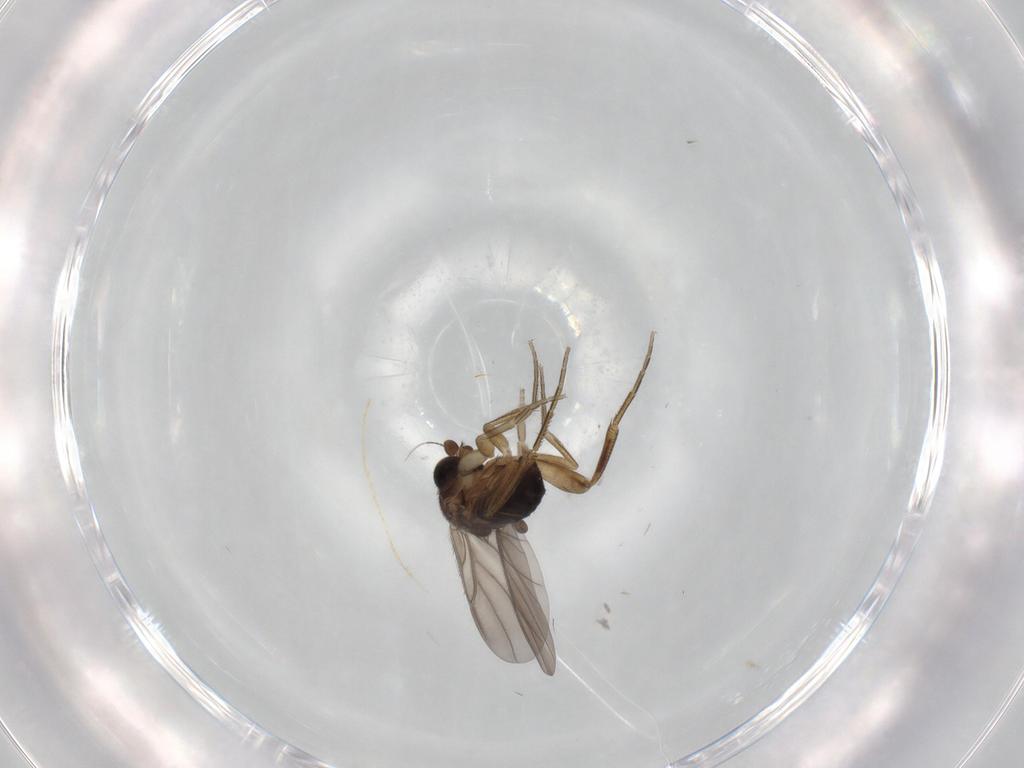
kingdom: Animalia
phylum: Arthropoda
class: Insecta
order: Diptera
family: Phoridae
